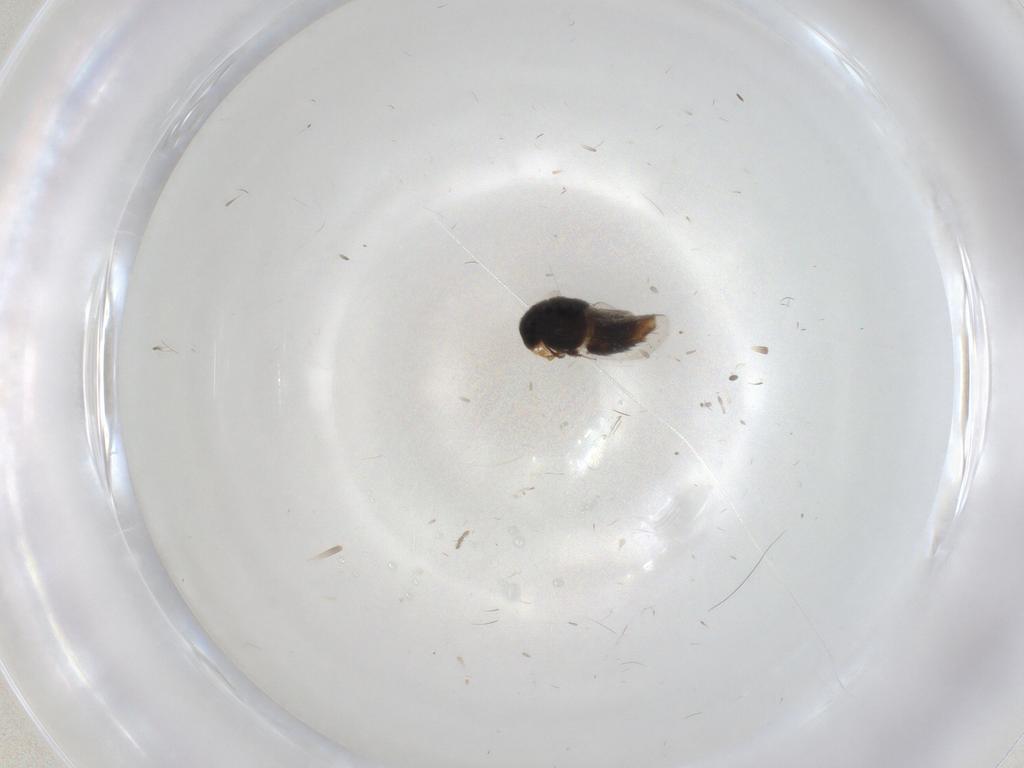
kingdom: Animalia
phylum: Arthropoda
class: Insecta
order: Coleoptera
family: Staphylinidae
